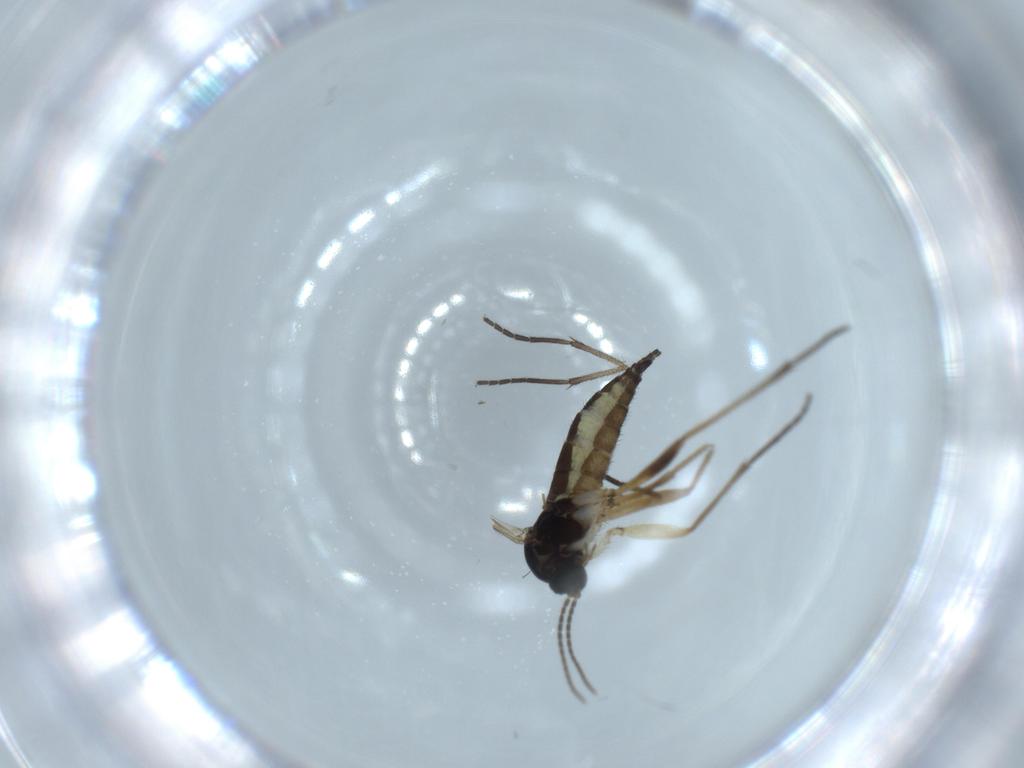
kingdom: Animalia
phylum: Arthropoda
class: Insecta
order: Diptera
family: Sciaridae
